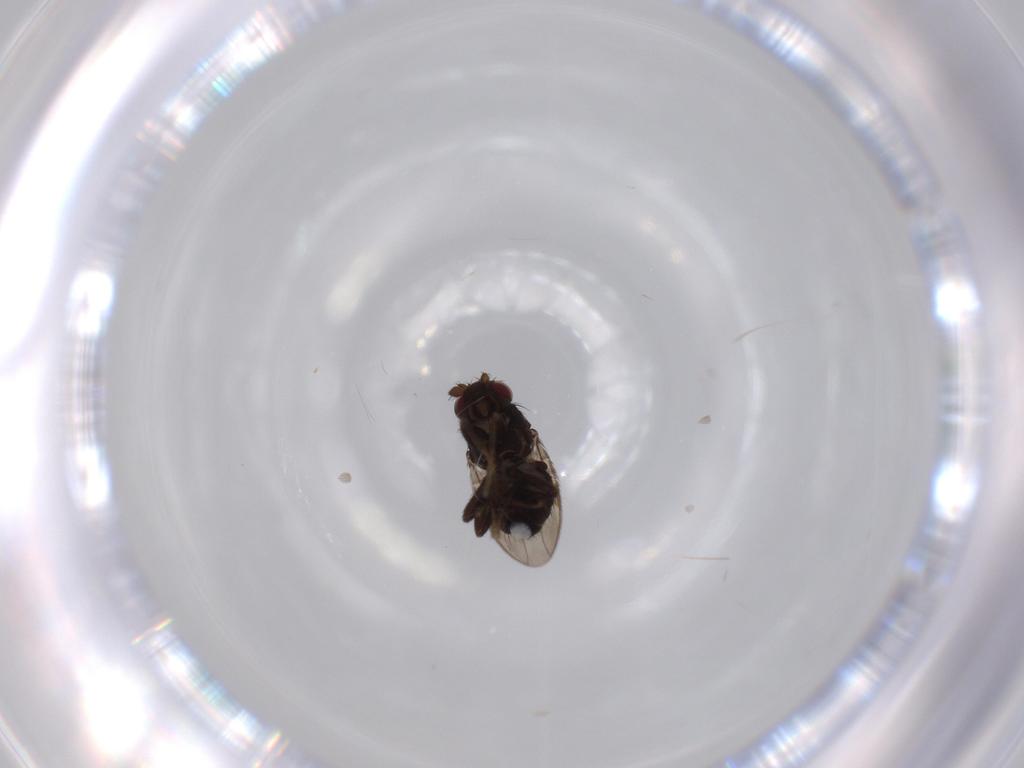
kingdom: Animalia
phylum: Arthropoda
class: Insecta
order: Diptera
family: Sphaeroceridae
